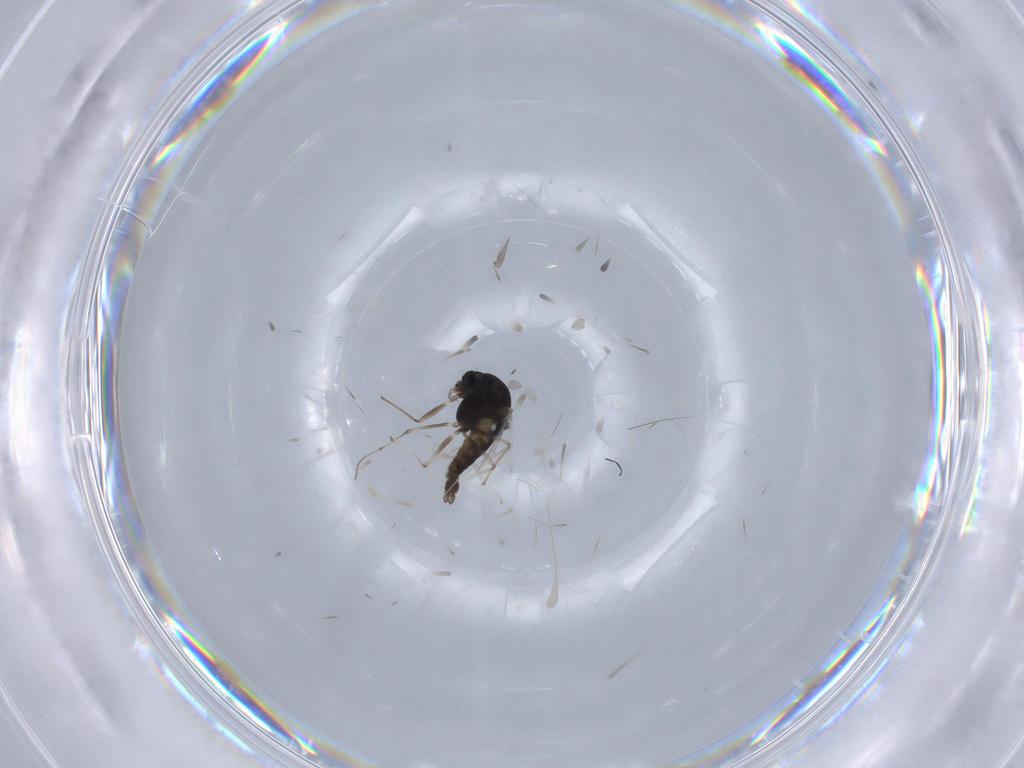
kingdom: Animalia
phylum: Arthropoda
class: Insecta
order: Diptera
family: Chironomidae
